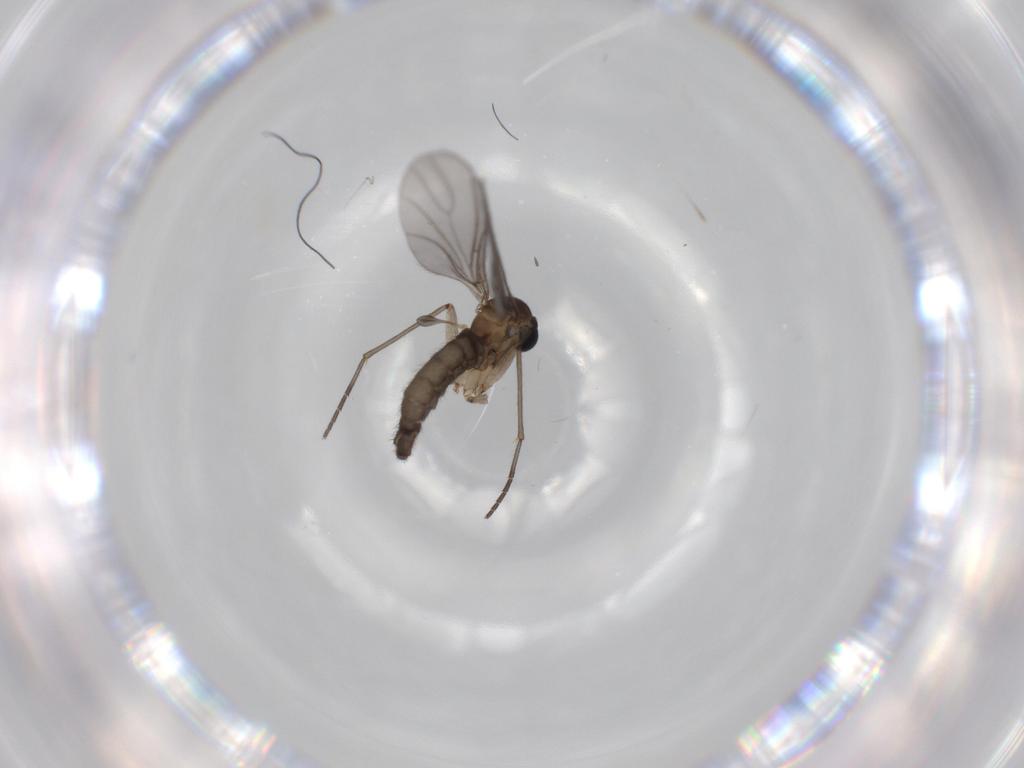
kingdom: Animalia
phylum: Arthropoda
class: Insecta
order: Diptera
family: Sciaridae
